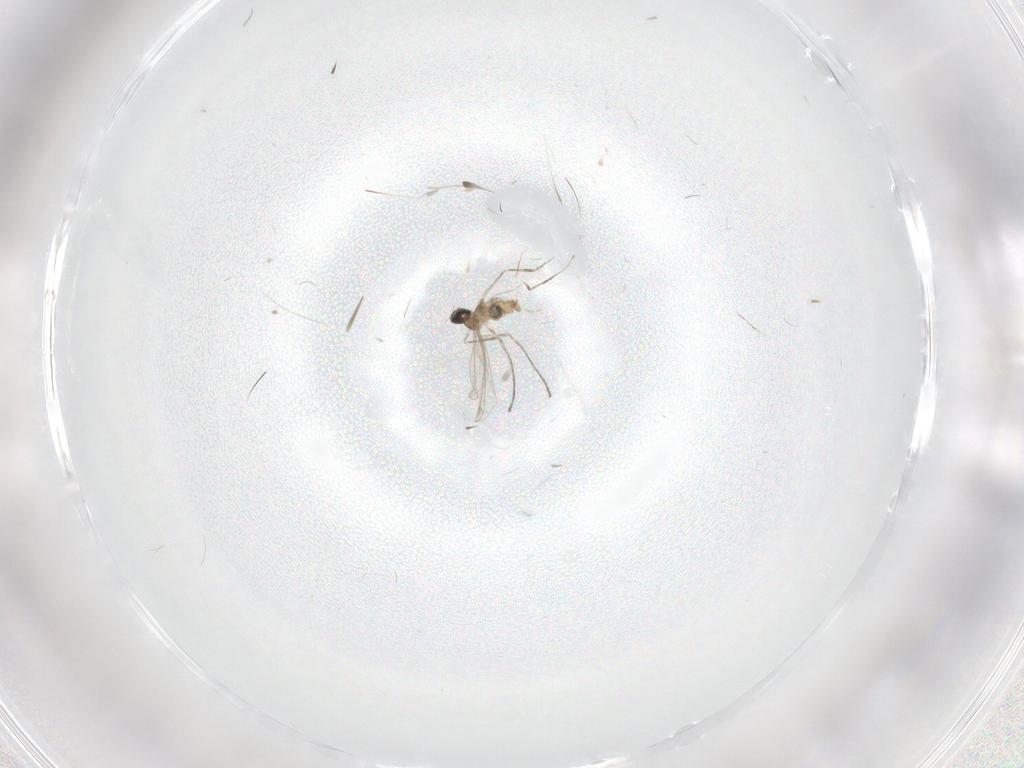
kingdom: Animalia
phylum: Arthropoda
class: Insecta
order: Diptera
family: Cecidomyiidae
